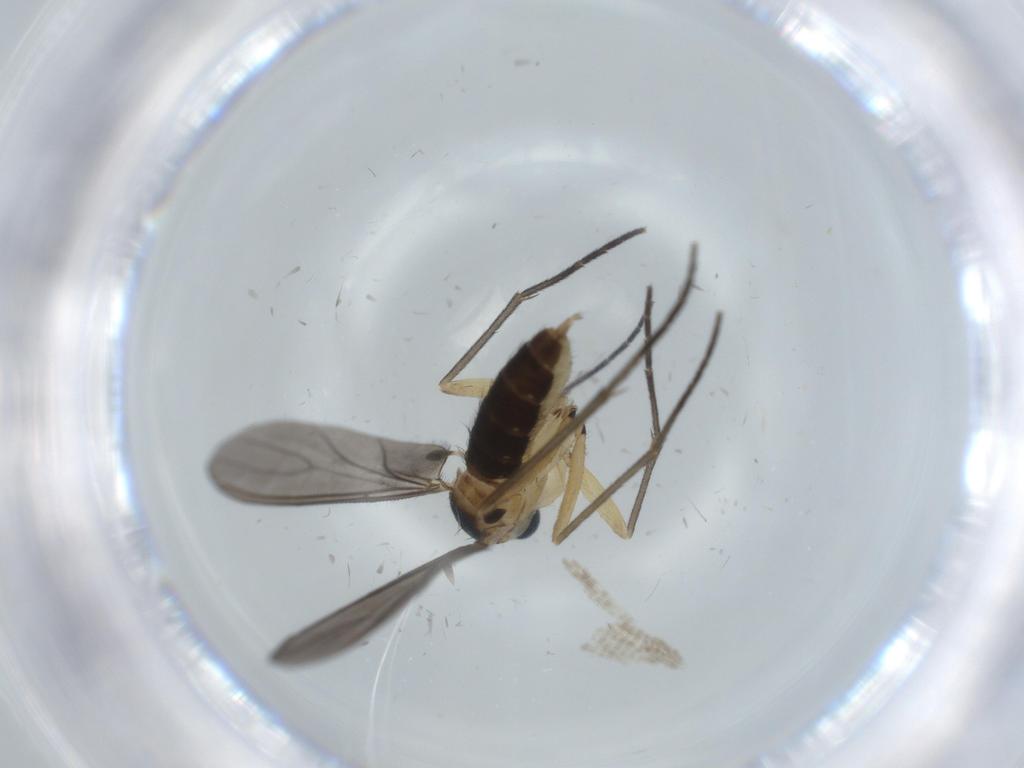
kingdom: Animalia
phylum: Arthropoda
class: Insecta
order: Diptera
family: Sciaridae
